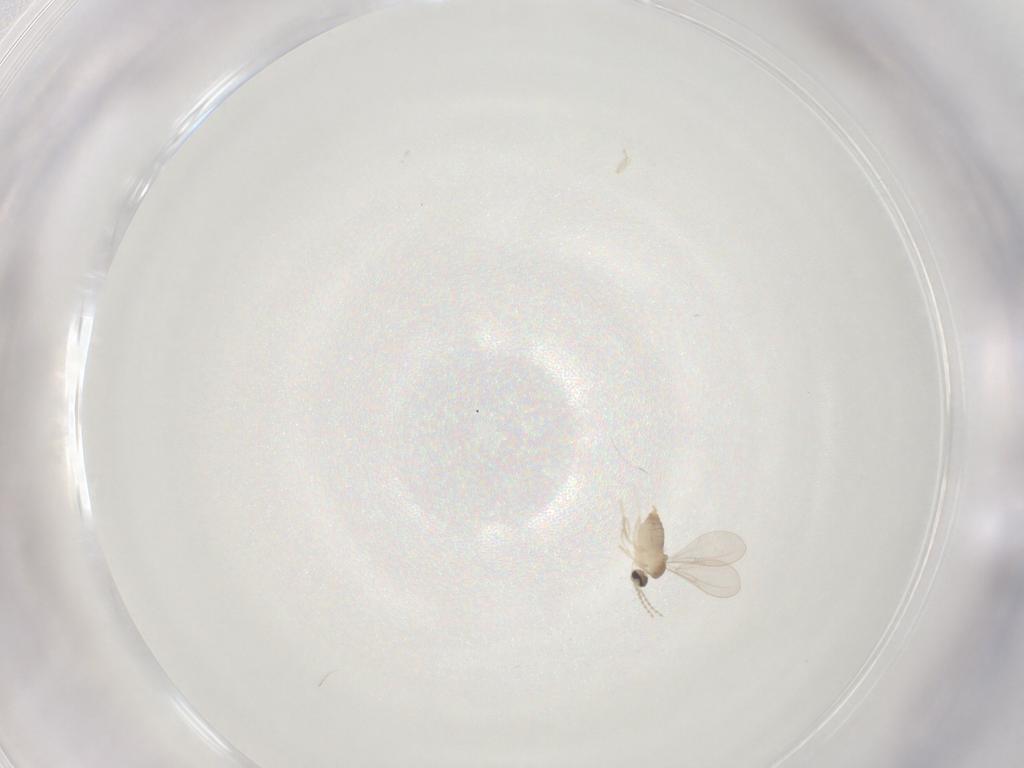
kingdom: Animalia
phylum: Arthropoda
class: Insecta
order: Diptera
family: Cecidomyiidae
